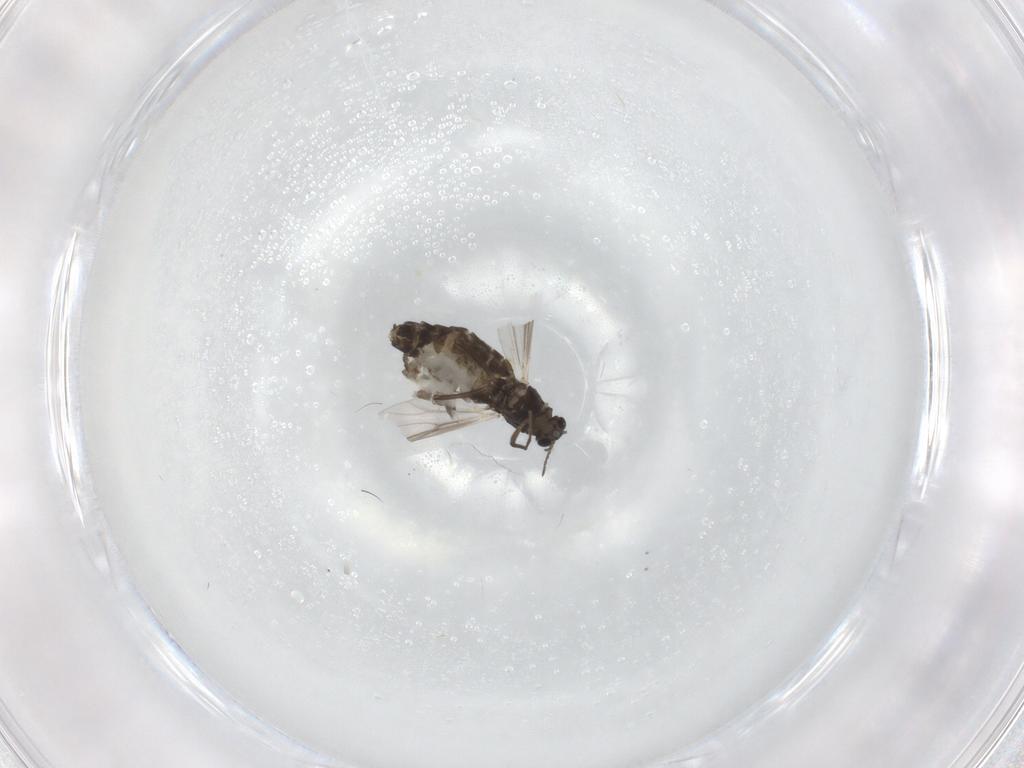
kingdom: Animalia
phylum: Arthropoda
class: Insecta
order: Diptera
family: Chironomidae
